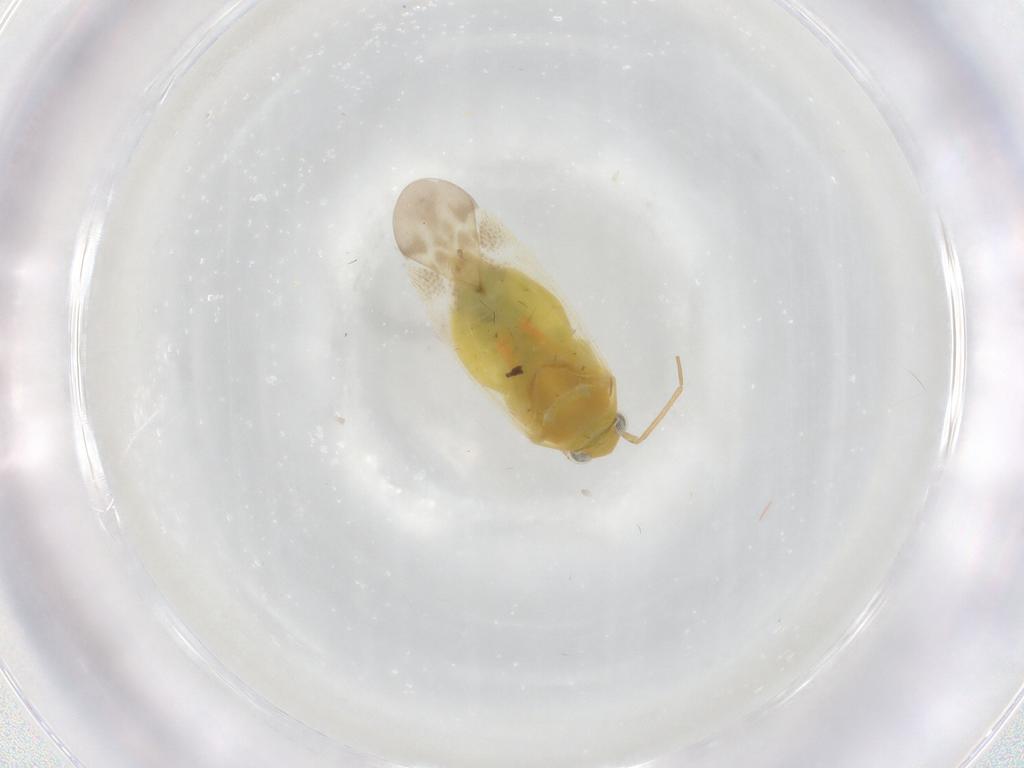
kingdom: Animalia
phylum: Arthropoda
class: Insecta
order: Hemiptera
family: Miridae
